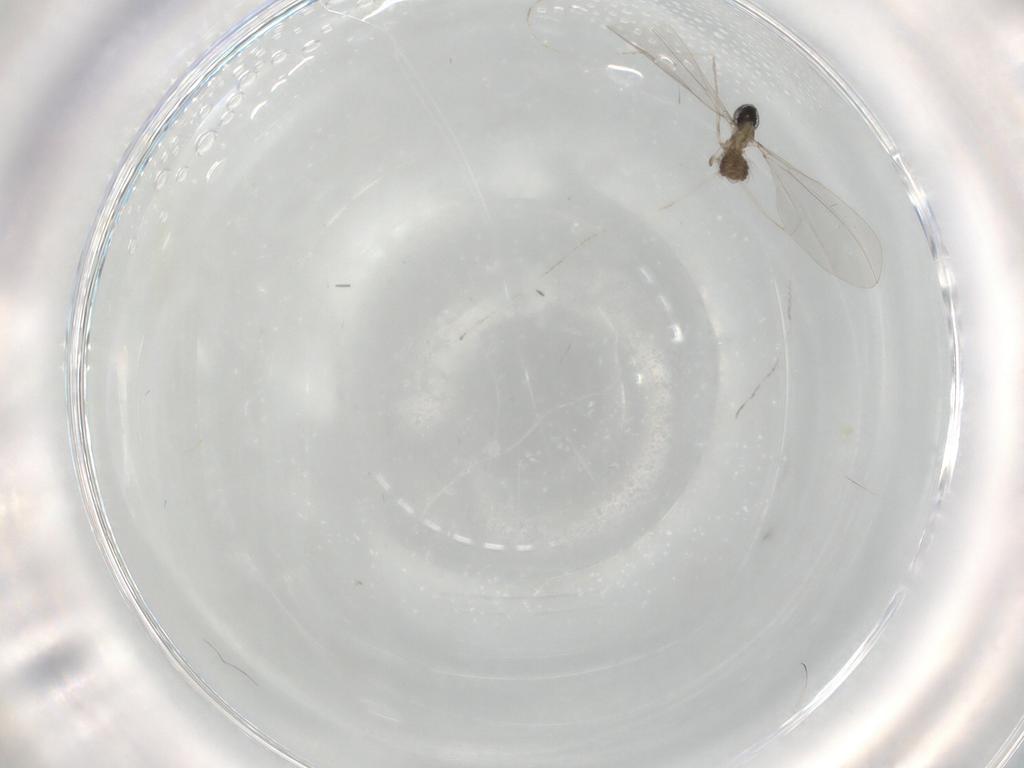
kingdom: Animalia
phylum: Arthropoda
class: Insecta
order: Diptera
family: Cecidomyiidae
